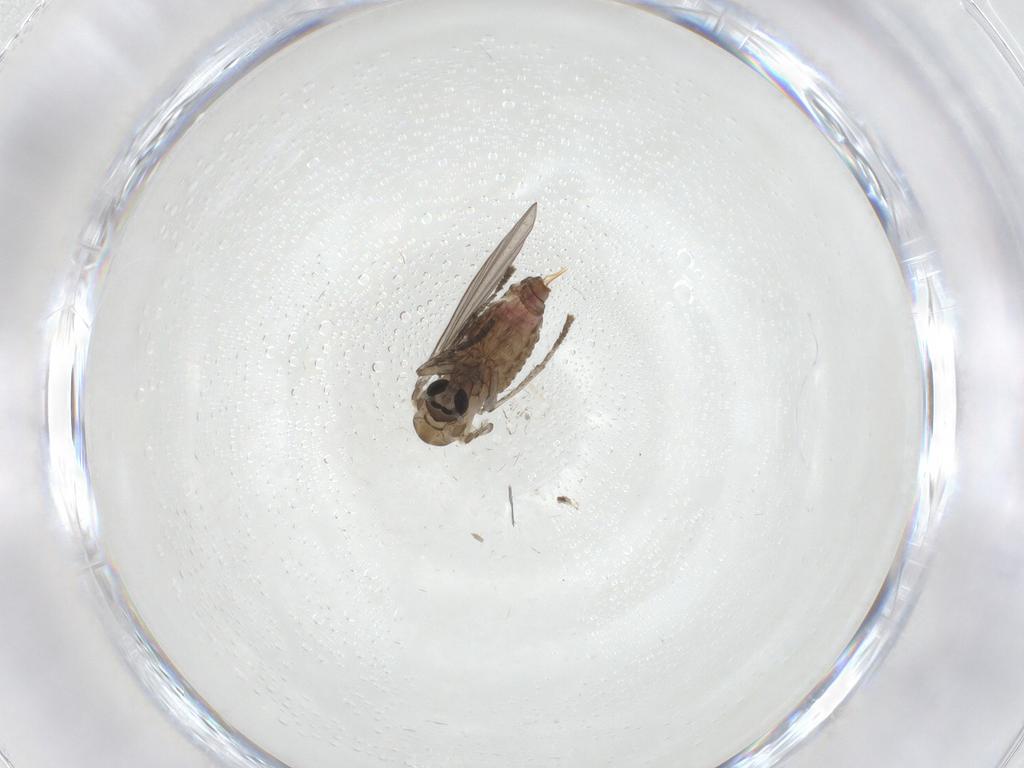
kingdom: Animalia
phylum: Arthropoda
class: Insecta
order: Diptera
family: Psychodidae
